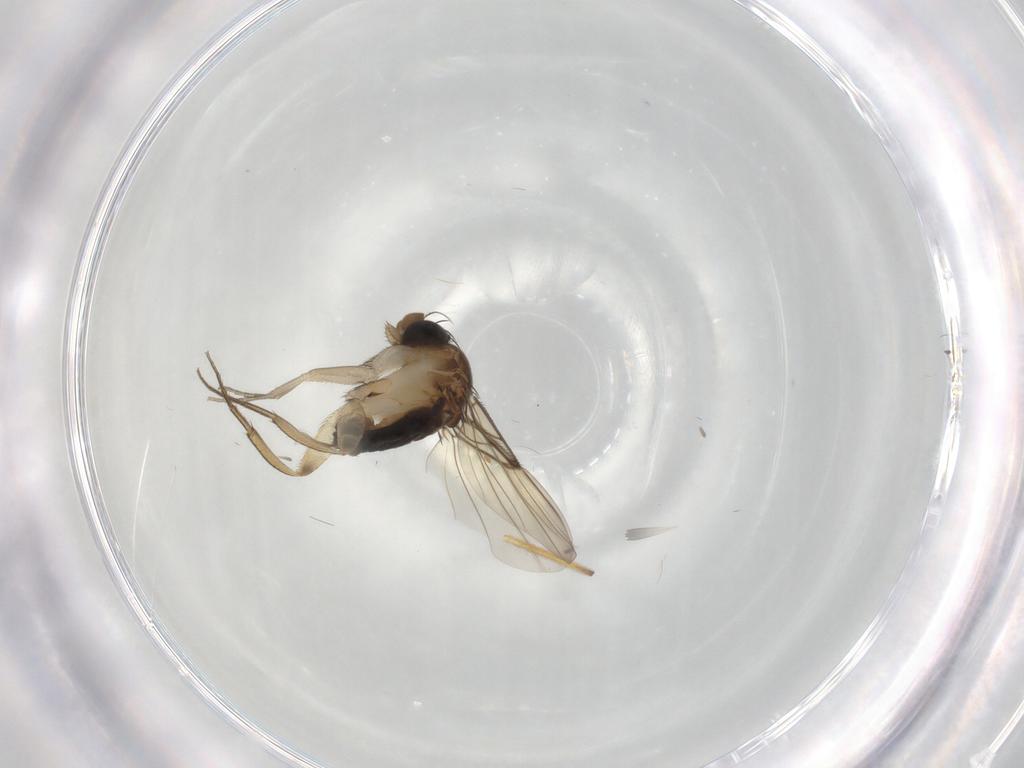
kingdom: Animalia
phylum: Arthropoda
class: Insecta
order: Diptera
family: Phoridae
